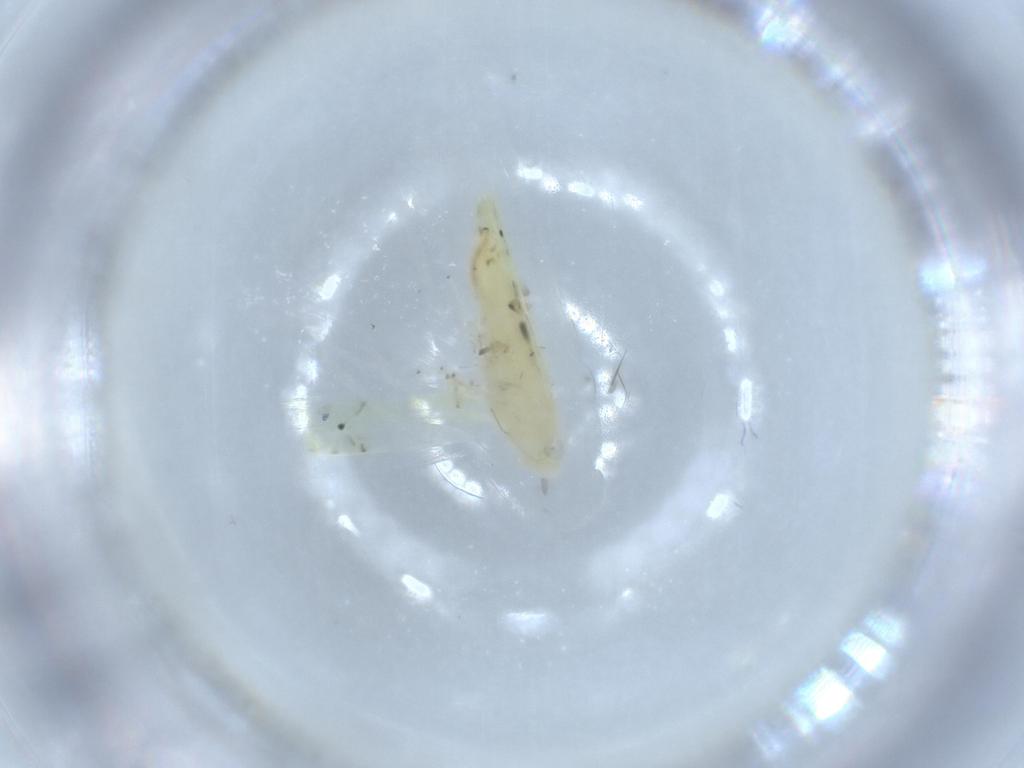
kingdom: Animalia
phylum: Arthropoda
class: Insecta
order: Hemiptera
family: Cicadellidae
